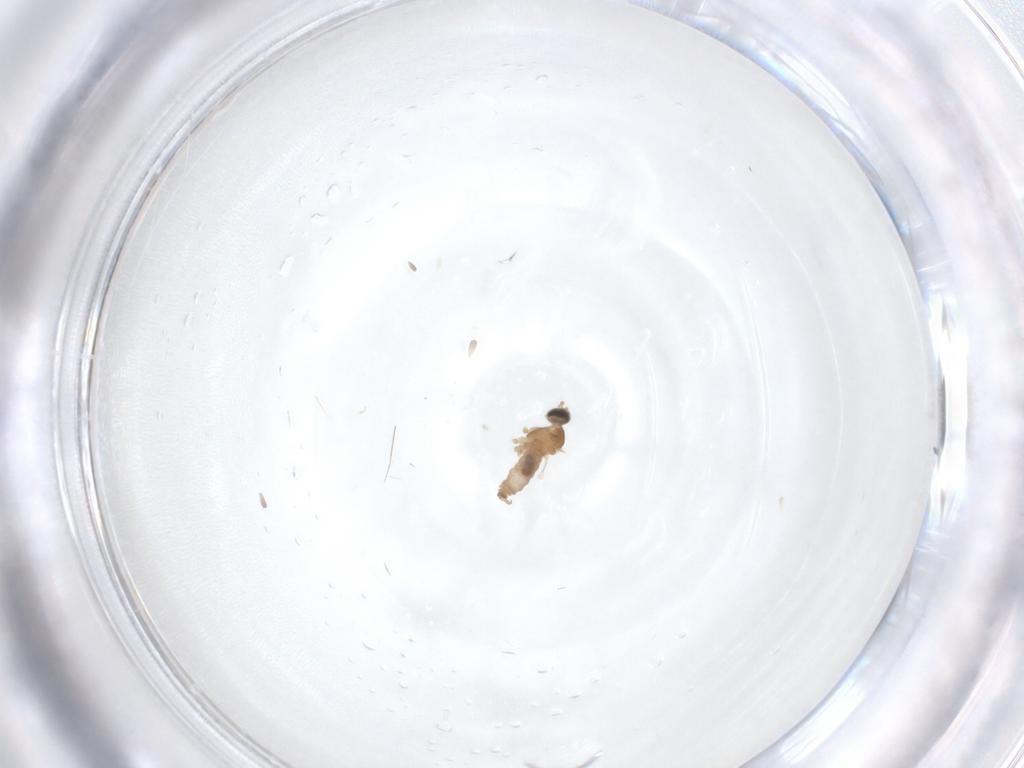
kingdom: Animalia
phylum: Arthropoda
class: Insecta
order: Diptera
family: Cecidomyiidae
